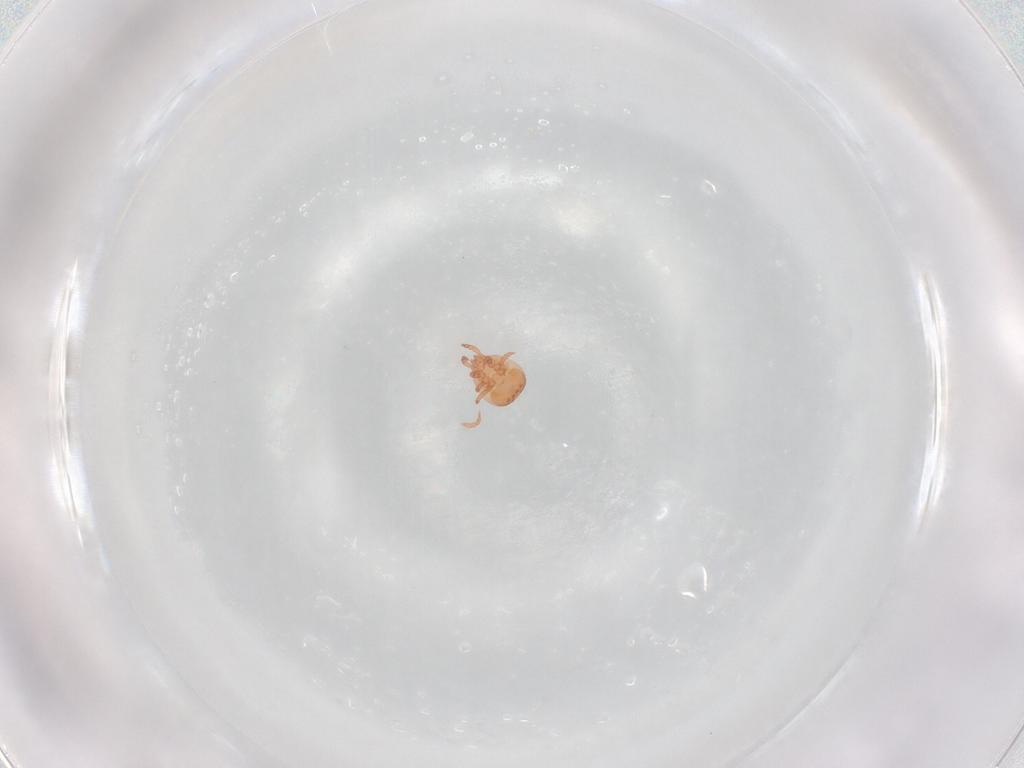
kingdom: Animalia
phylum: Arthropoda
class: Arachnida
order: Mesostigmata
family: Zerconidae
